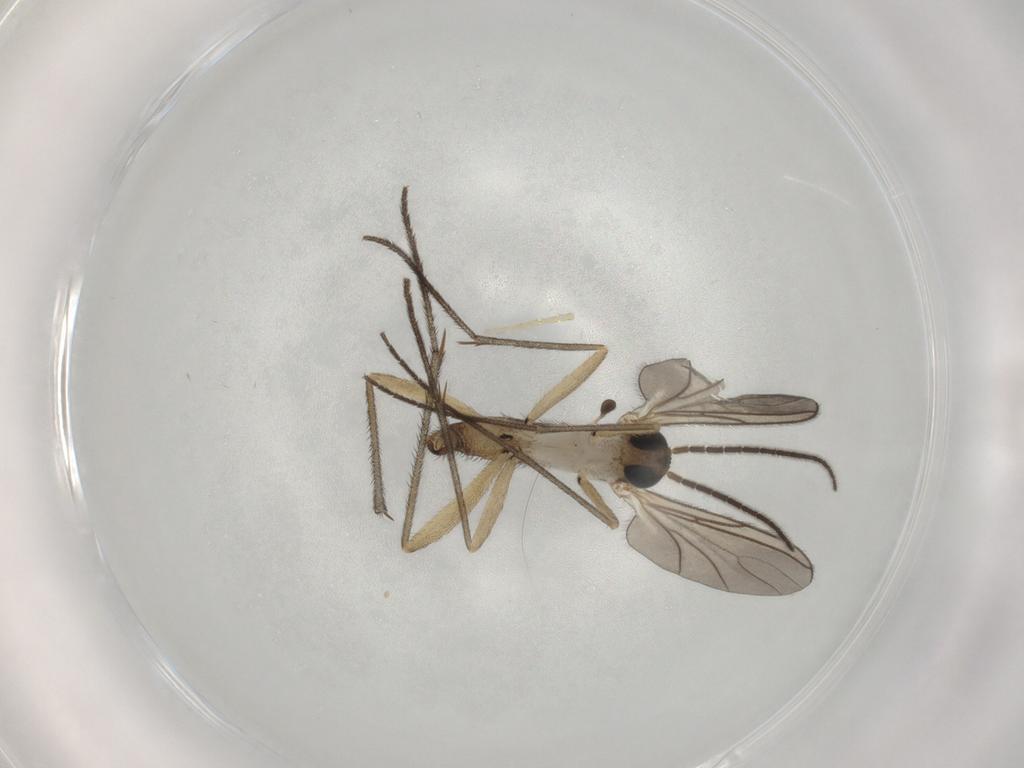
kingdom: Animalia
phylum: Arthropoda
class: Insecta
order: Diptera
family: Sciaridae
